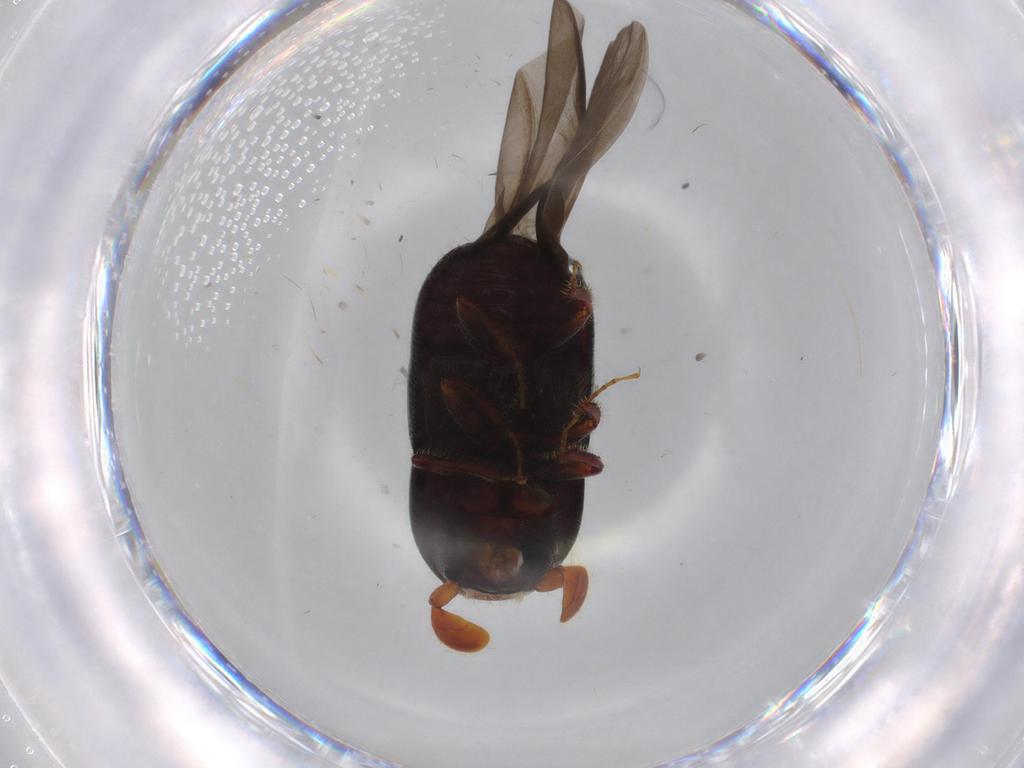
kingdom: Animalia
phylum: Arthropoda
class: Insecta
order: Coleoptera
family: Curculionidae
